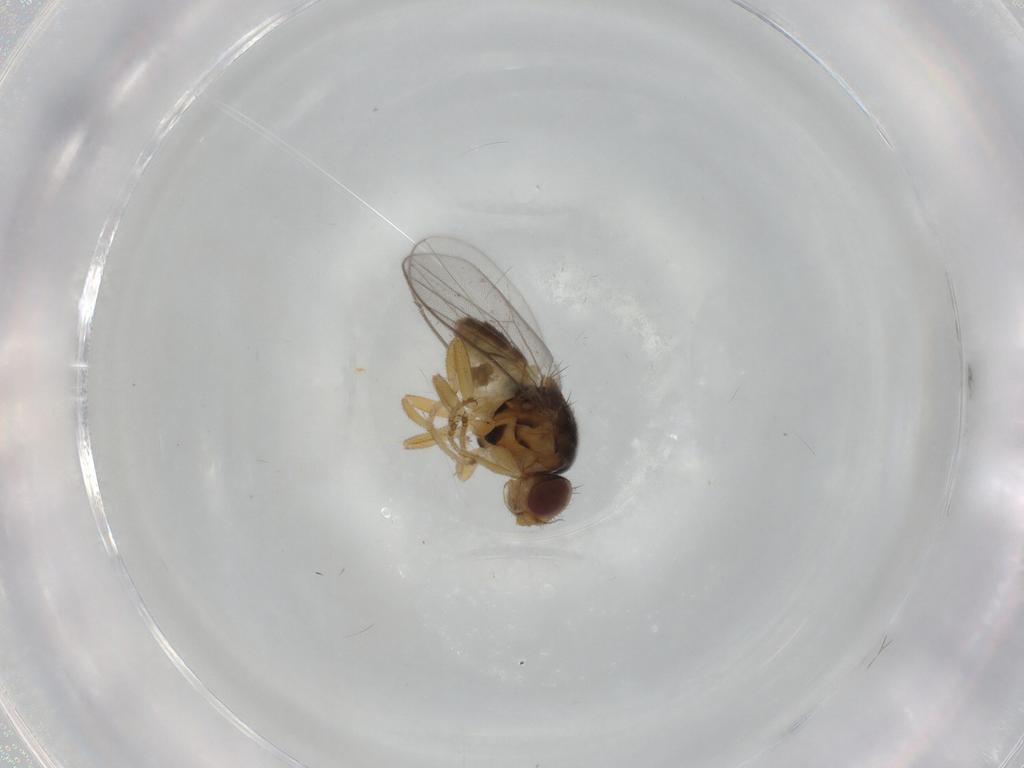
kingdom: Animalia
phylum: Arthropoda
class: Insecta
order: Diptera
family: Chloropidae
